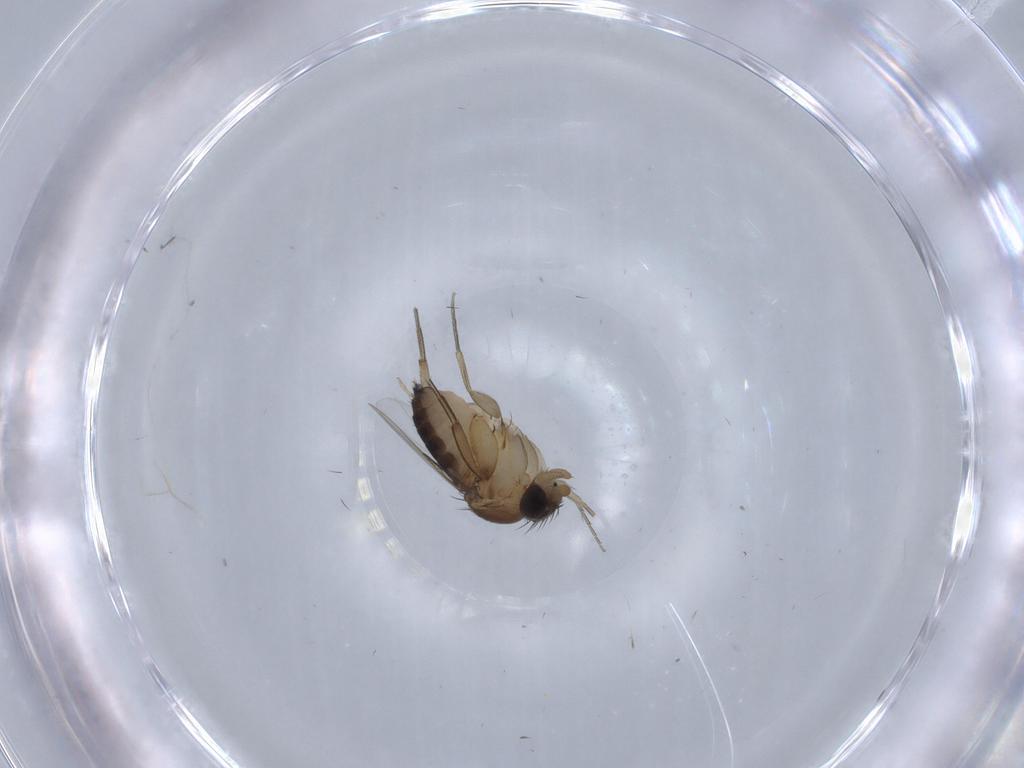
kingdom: Animalia
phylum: Arthropoda
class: Insecta
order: Diptera
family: Chironomidae
